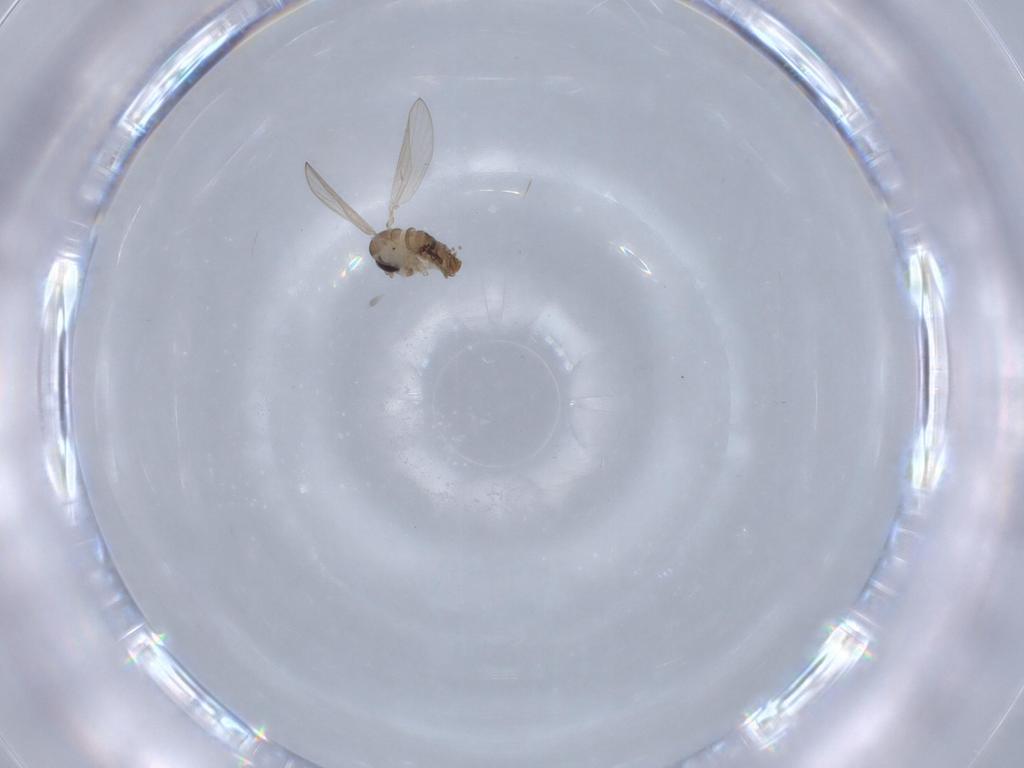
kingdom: Animalia
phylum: Arthropoda
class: Insecta
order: Diptera
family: Psychodidae
